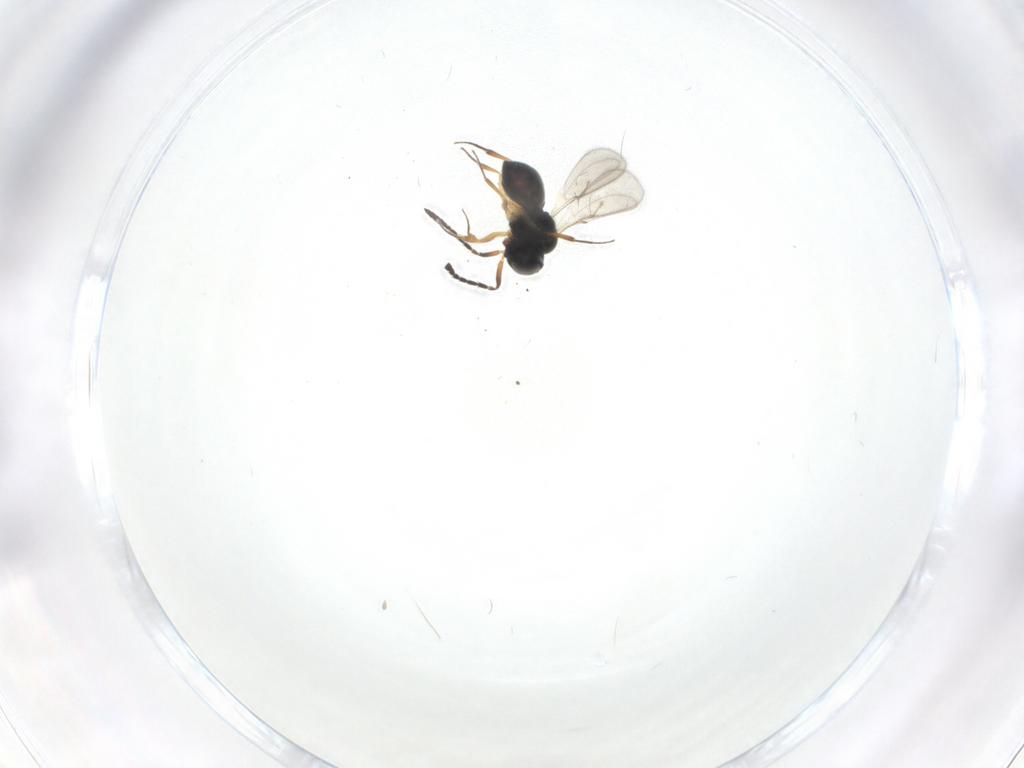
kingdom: Animalia
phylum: Arthropoda
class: Insecta
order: Hymenoptera
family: Scelionidae
